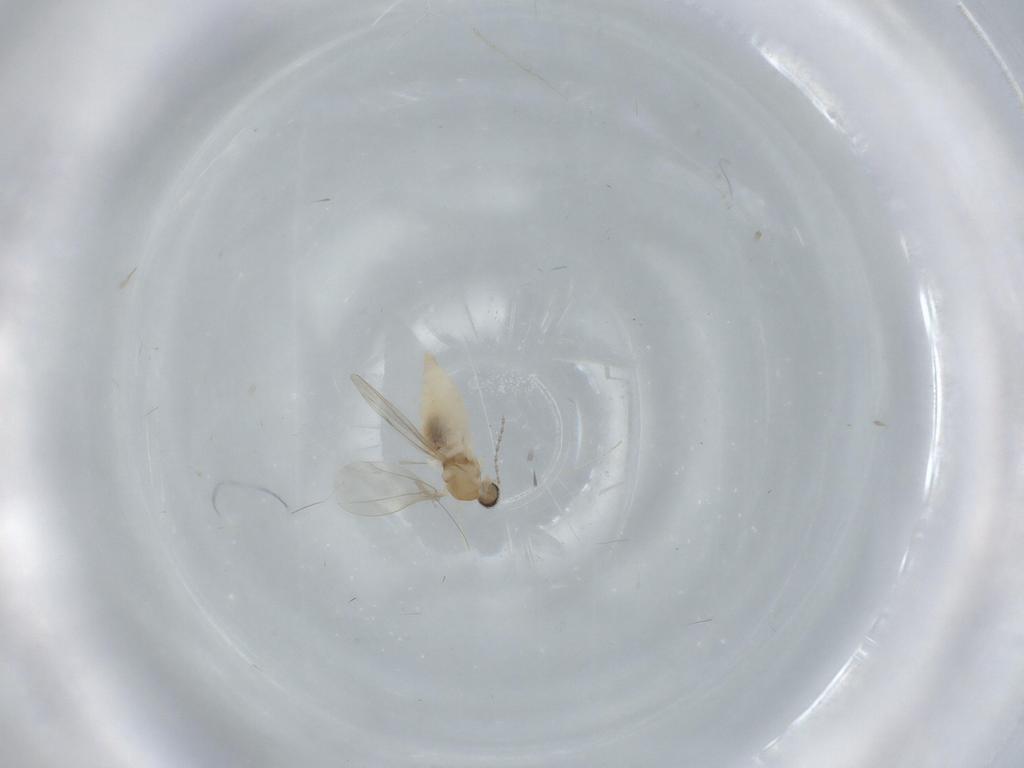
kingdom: Animalia
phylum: Arthropoda
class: Insecta
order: Diptera
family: Cecidomyiidae
